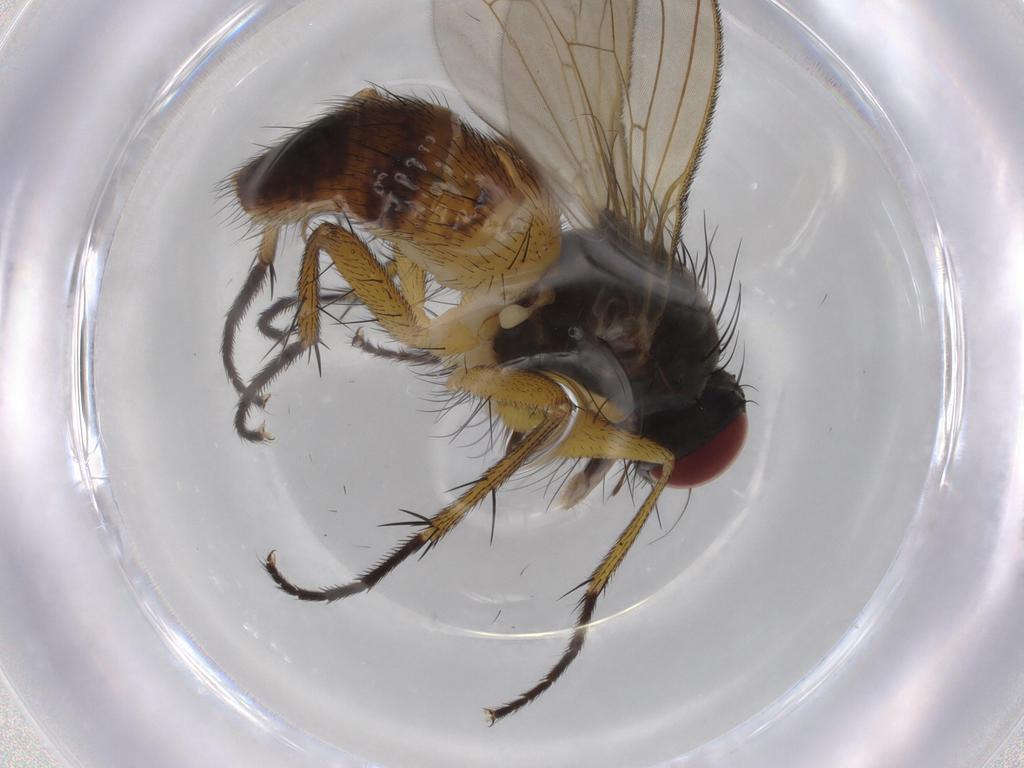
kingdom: Animalia
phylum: Arthropoda
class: Insecta
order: Diptera
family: Muscidae
